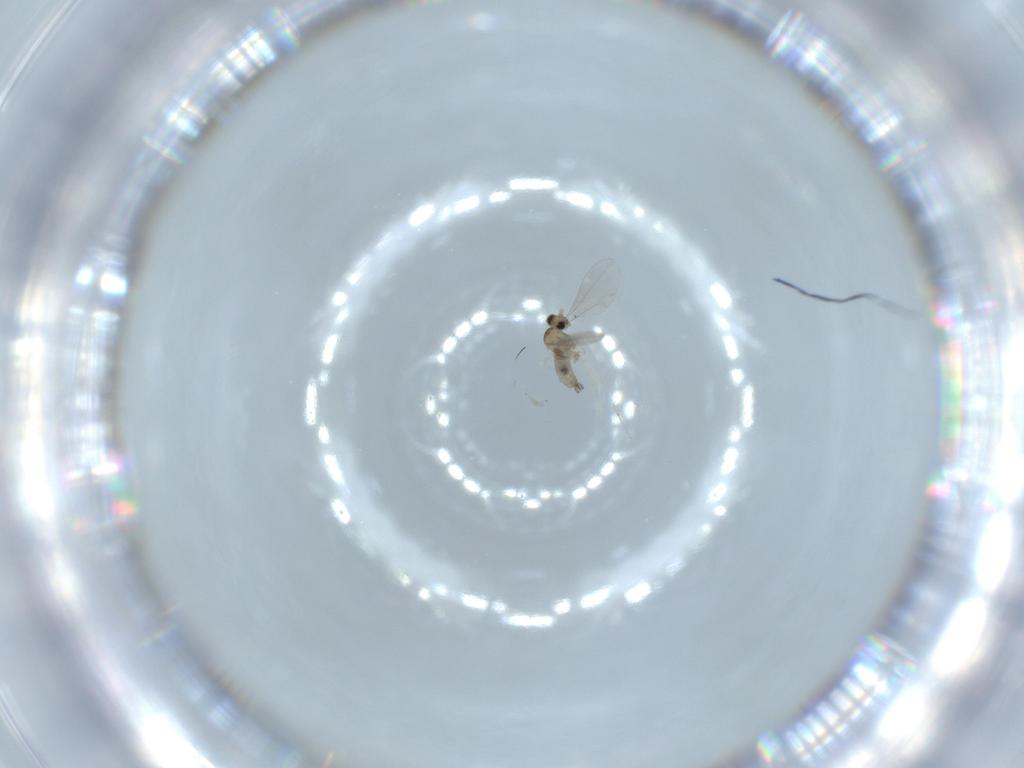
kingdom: Animalia
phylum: Arthropoda
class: Insecta
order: Diptera
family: Cecidomyiidae
